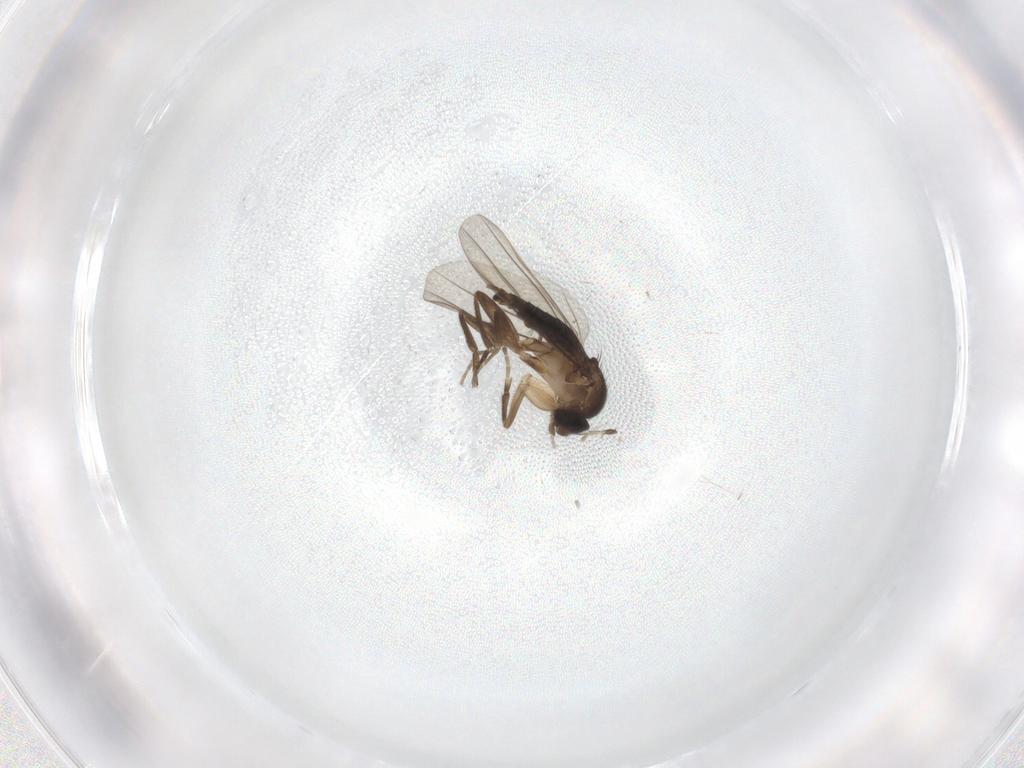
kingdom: Animalia
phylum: Arthropoda
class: Insecta
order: Diptera
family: Phoridae
